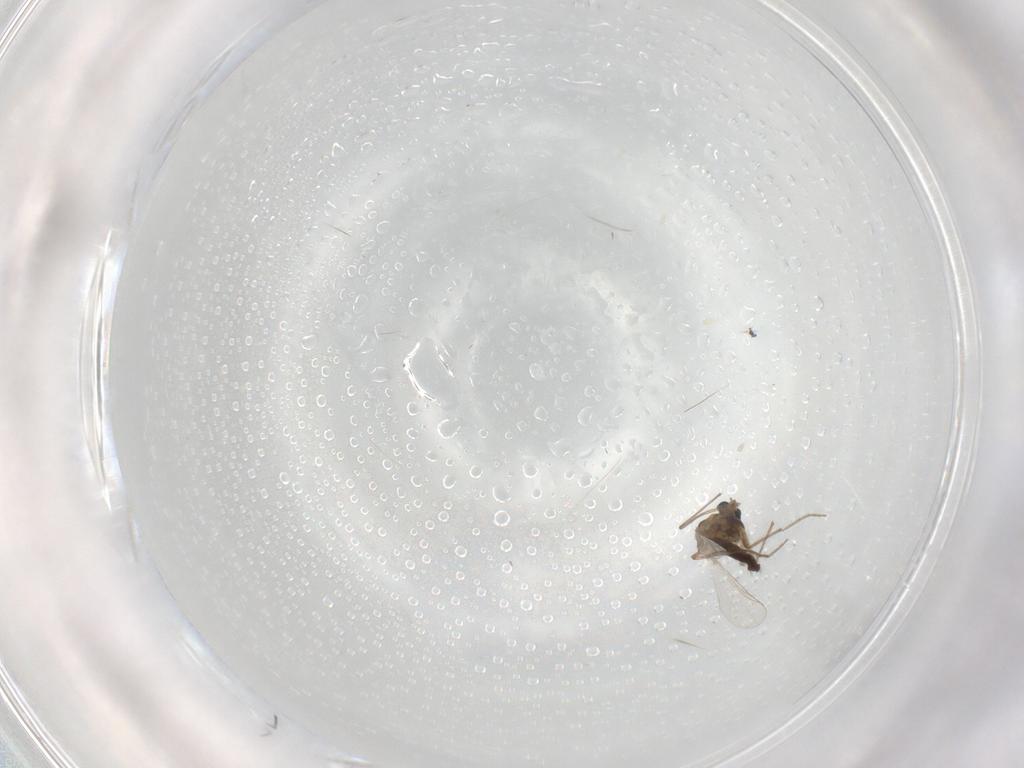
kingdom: Animalia
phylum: Arthropoda
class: Insecta
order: Diptera
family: Chironomidae
